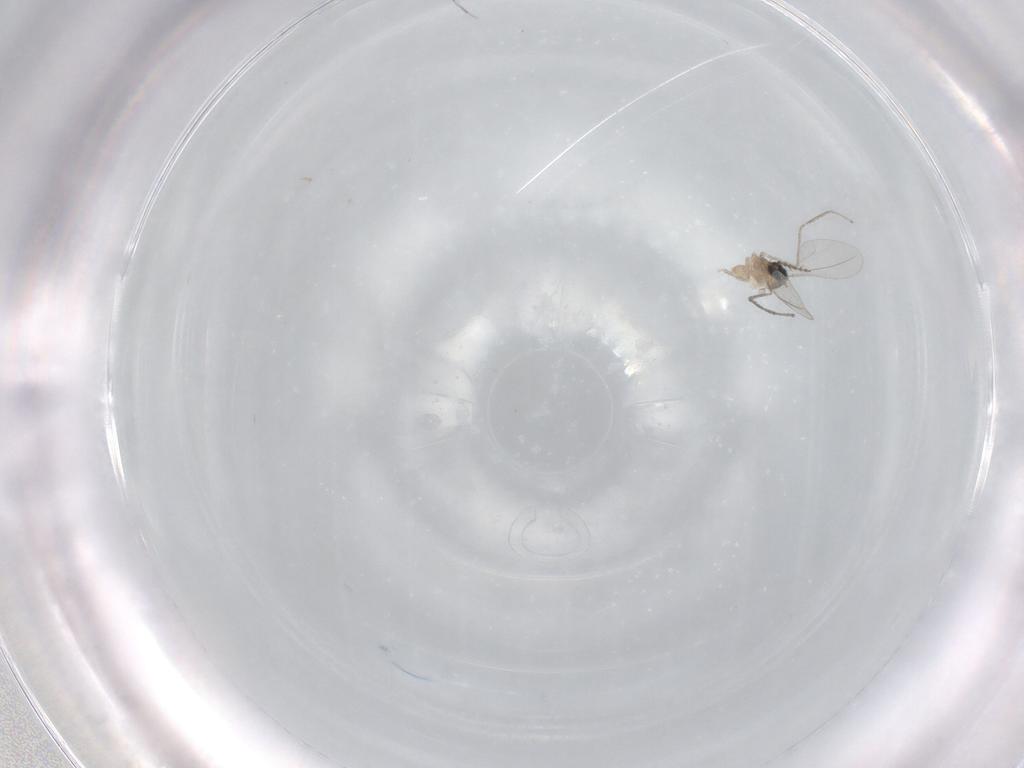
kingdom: Animalia
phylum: Arthropoda
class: Insecta
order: Diptera
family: Cecidomyiidae
